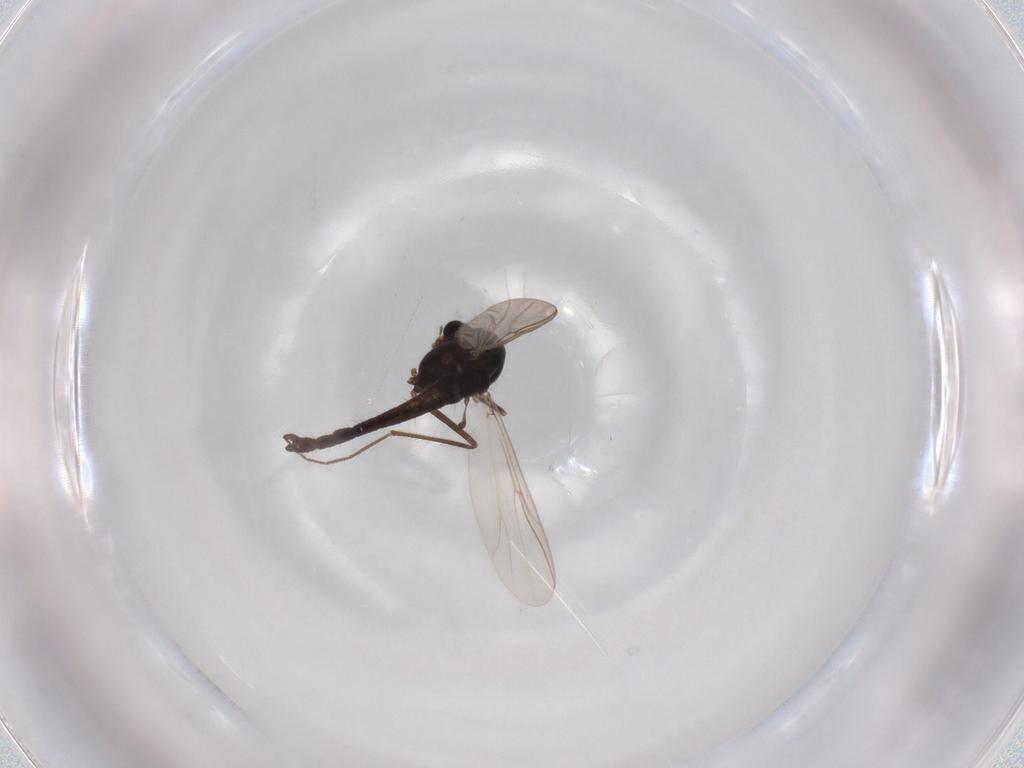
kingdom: Animalia
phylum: Arthropoda
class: Insecta
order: Diptera
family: Chironomidae
